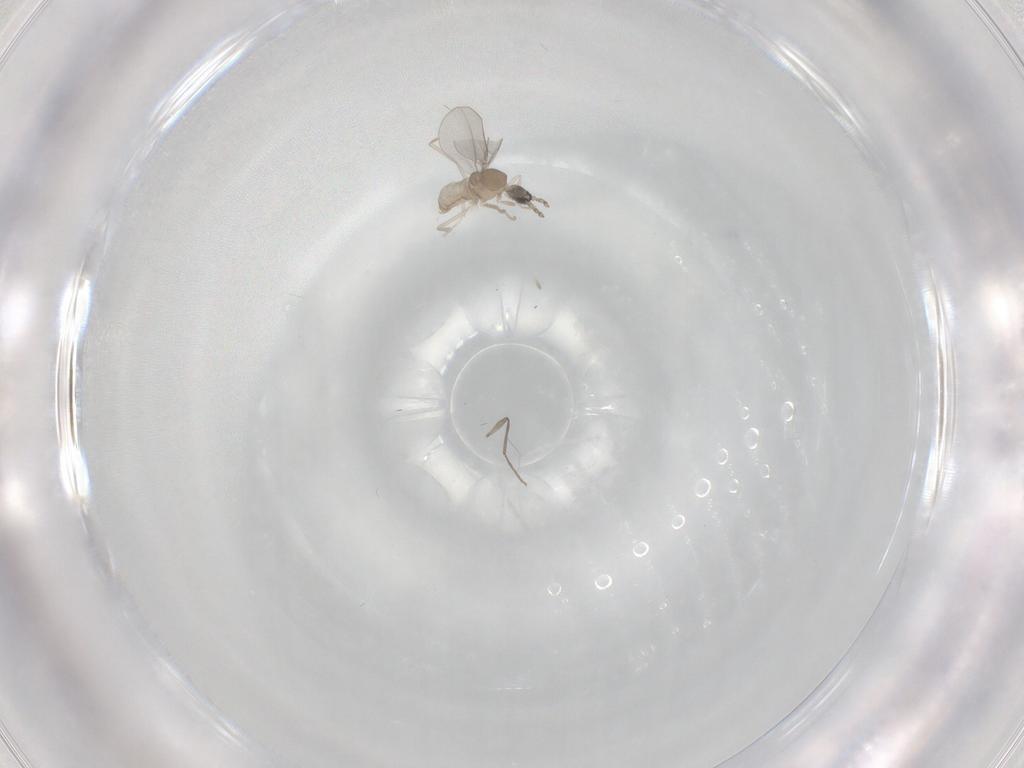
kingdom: Animalia
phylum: Arthropoda
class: Insecta
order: Diptera
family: Cecidomyiidae
